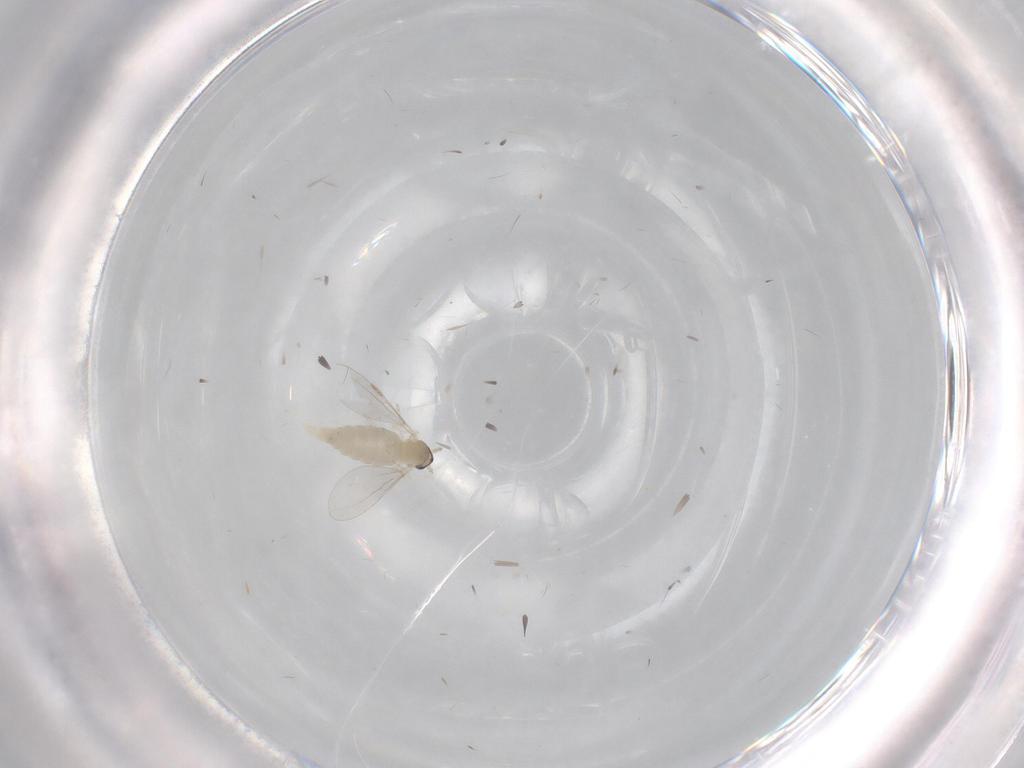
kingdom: Animalia
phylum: Arthropoda
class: Insecta
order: Diptera
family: Cecidomyiidae
